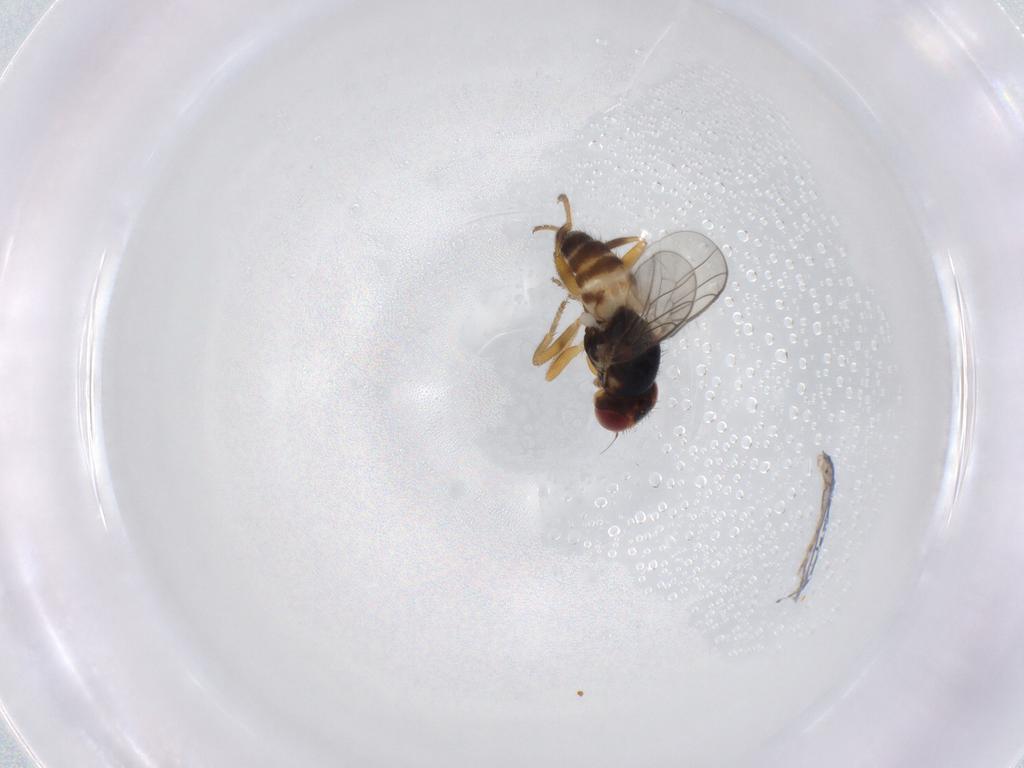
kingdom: Animalia
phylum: Arthropoda
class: Insecta
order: Diptera
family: Chloropidae
